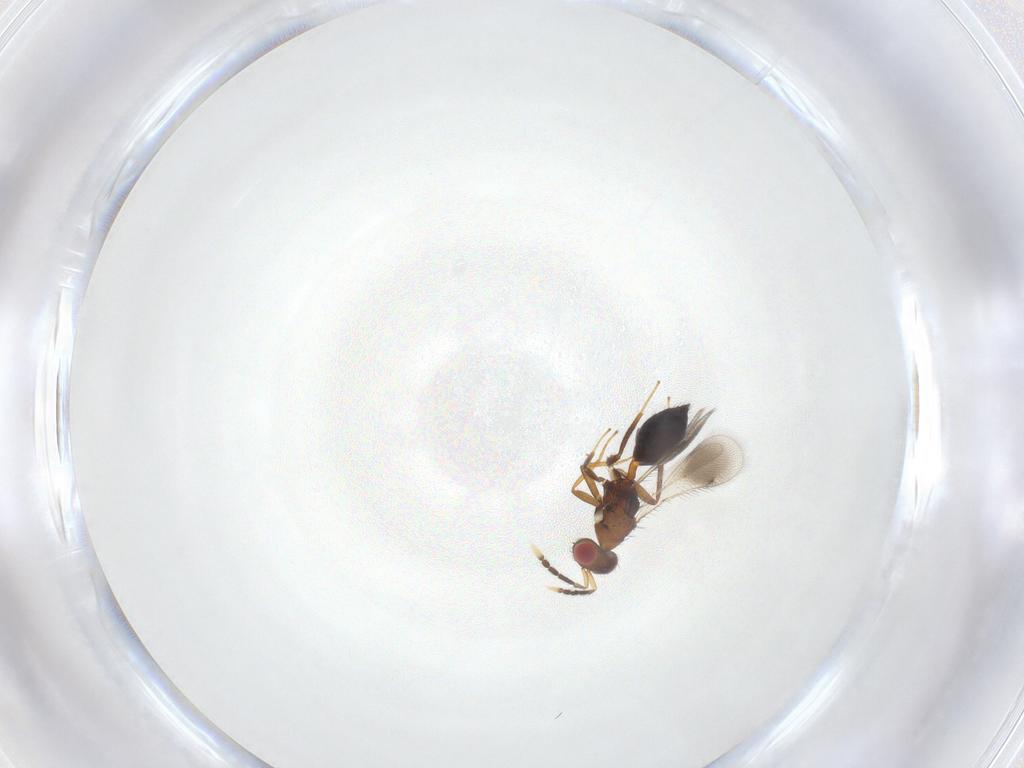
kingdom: Animalia
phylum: Arthropoda
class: Insecta
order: Hymenoptera
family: Eulophidae
